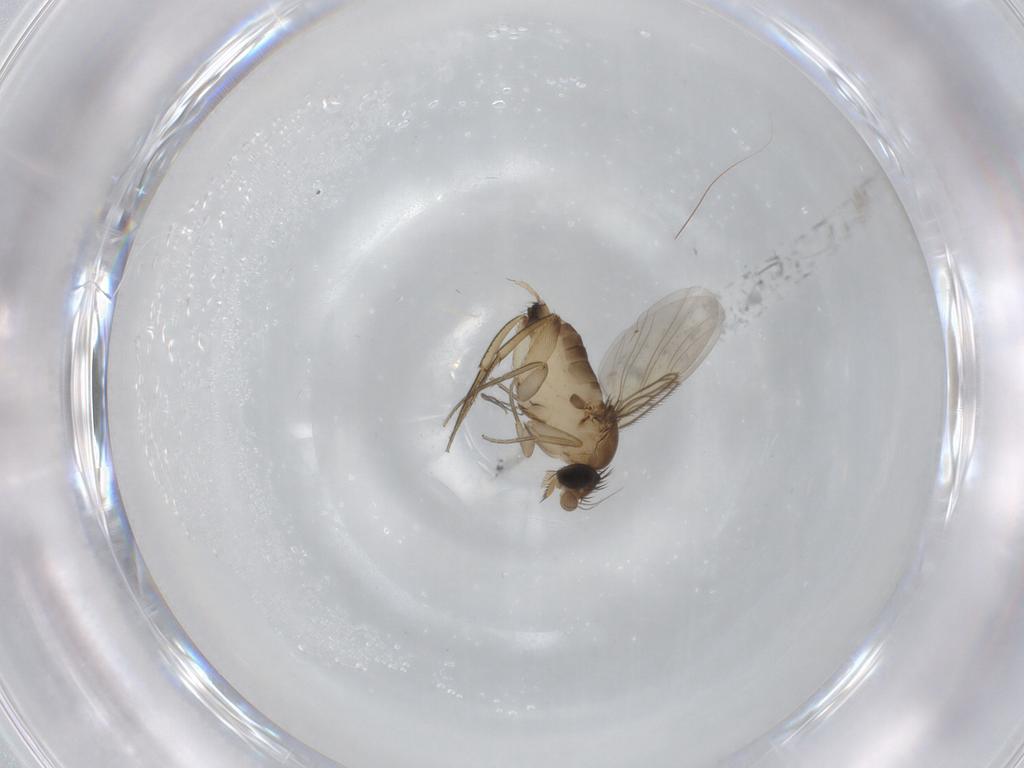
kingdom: Animalia
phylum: Arthropoda
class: Insecta
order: Diptera
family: Phoridae
